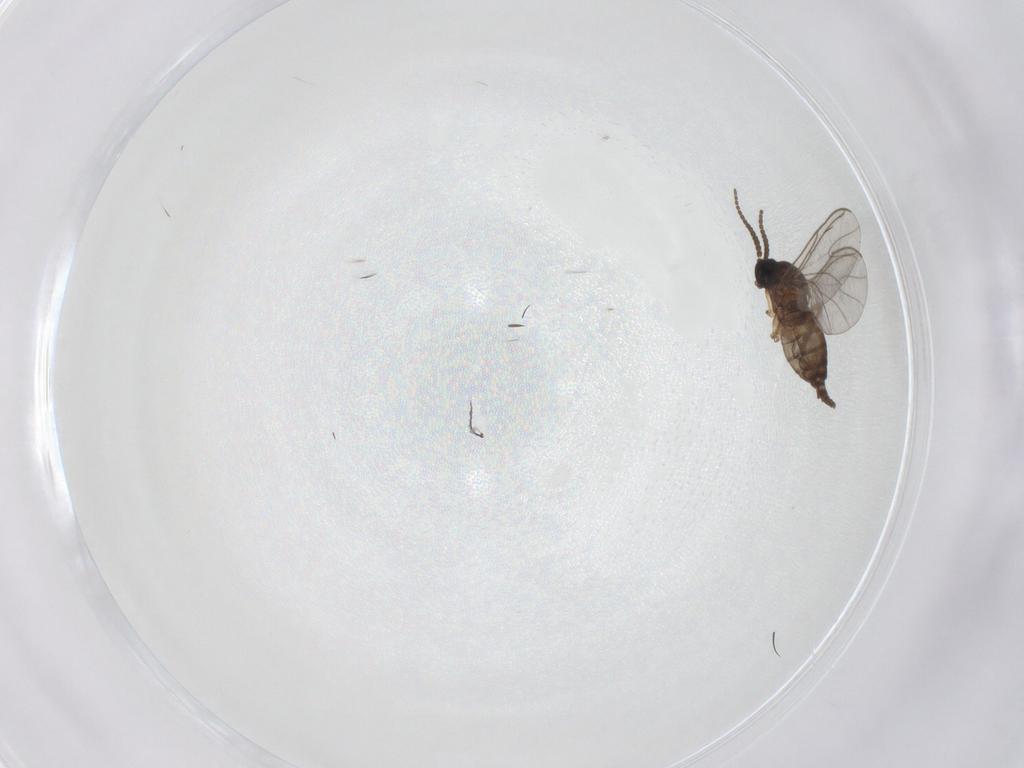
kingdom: Animalia
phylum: Arthropoda
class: Insecta
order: Diptera
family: Sciaridae
